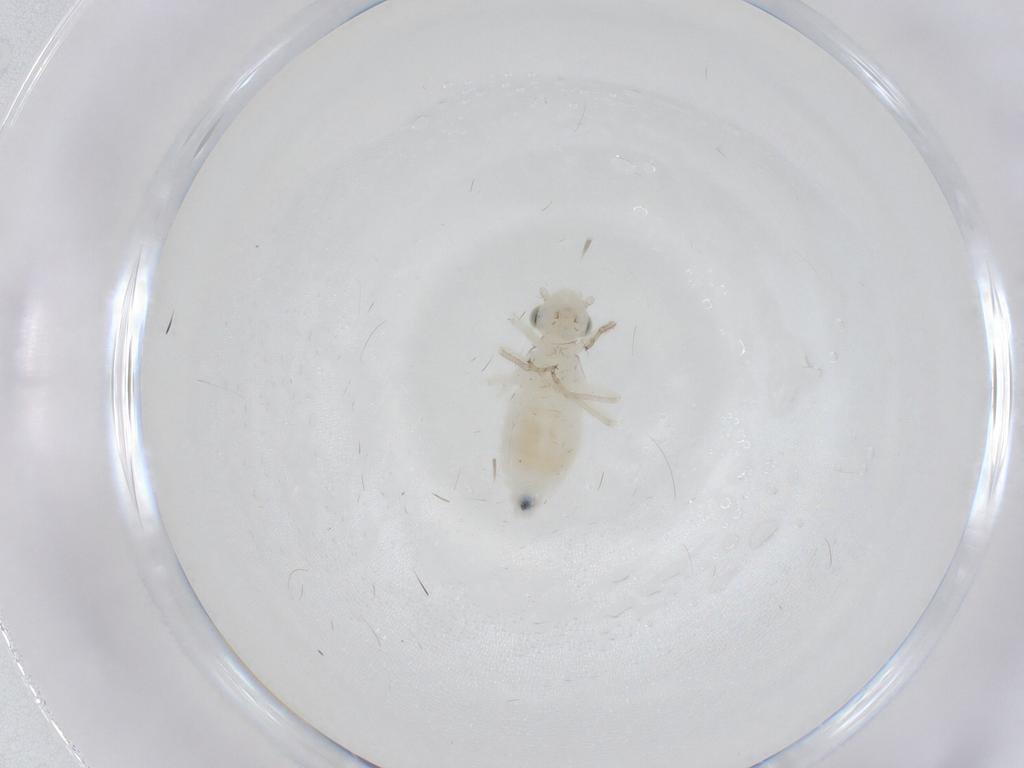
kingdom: Animalia
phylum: Arthropoda
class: Insecta
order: Psocodea
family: Caeciliusidae
